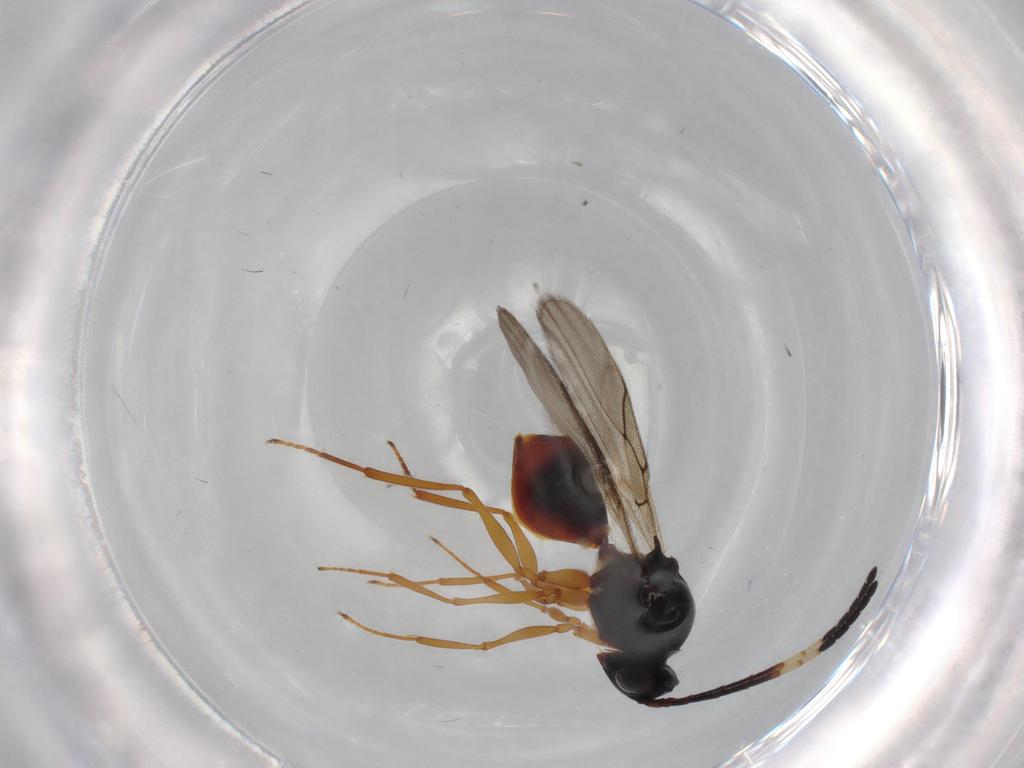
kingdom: Animalia
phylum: Arthropoda
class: Insecta
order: Hymenoptera
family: Figitidae
